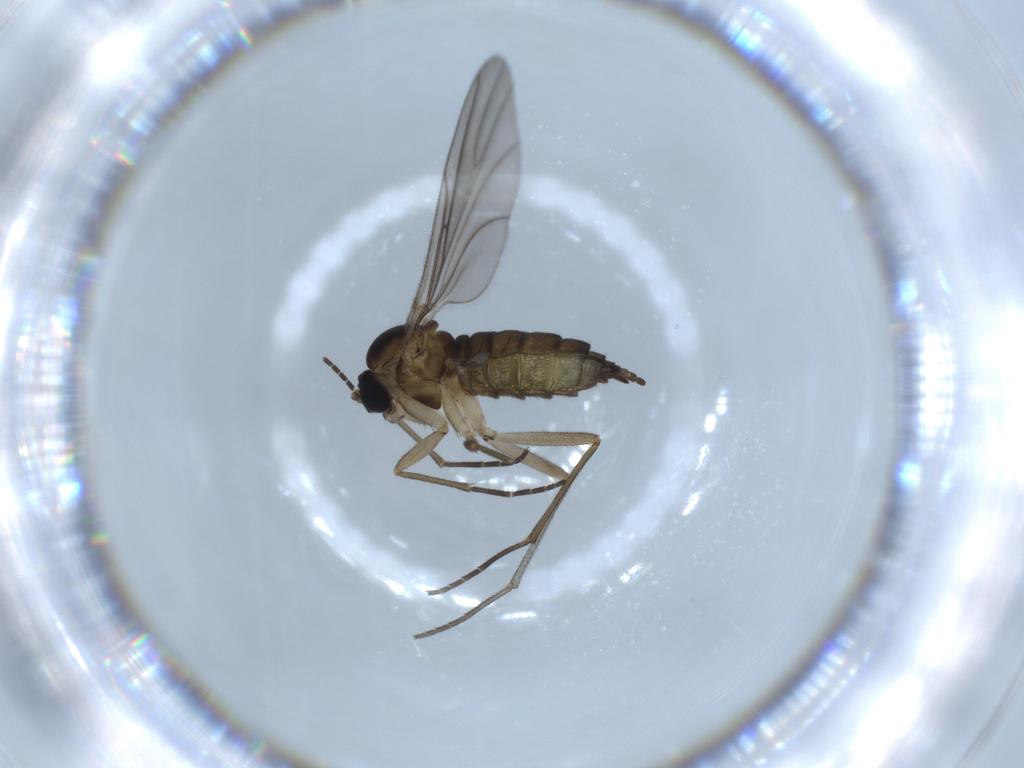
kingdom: Animalia
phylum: Arthropoda
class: Insecta
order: Diptera
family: Sciaridae
